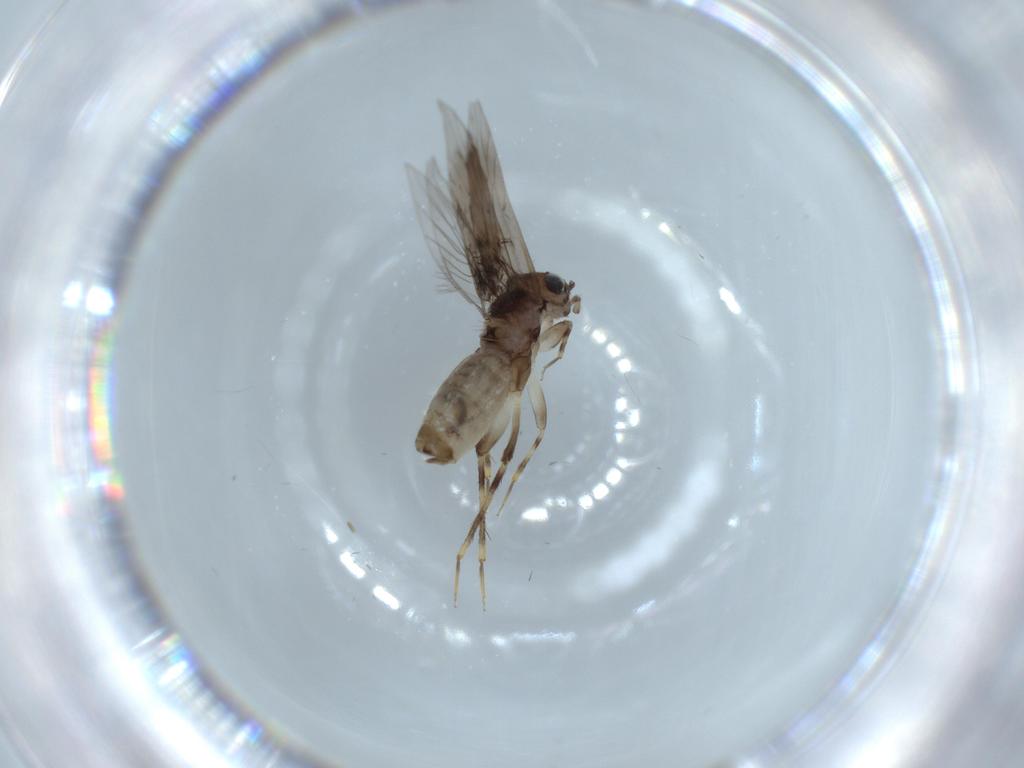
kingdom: Animalia
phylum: Arthropoda
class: Insecta
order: Psocodea
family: Lepidopsocidae
